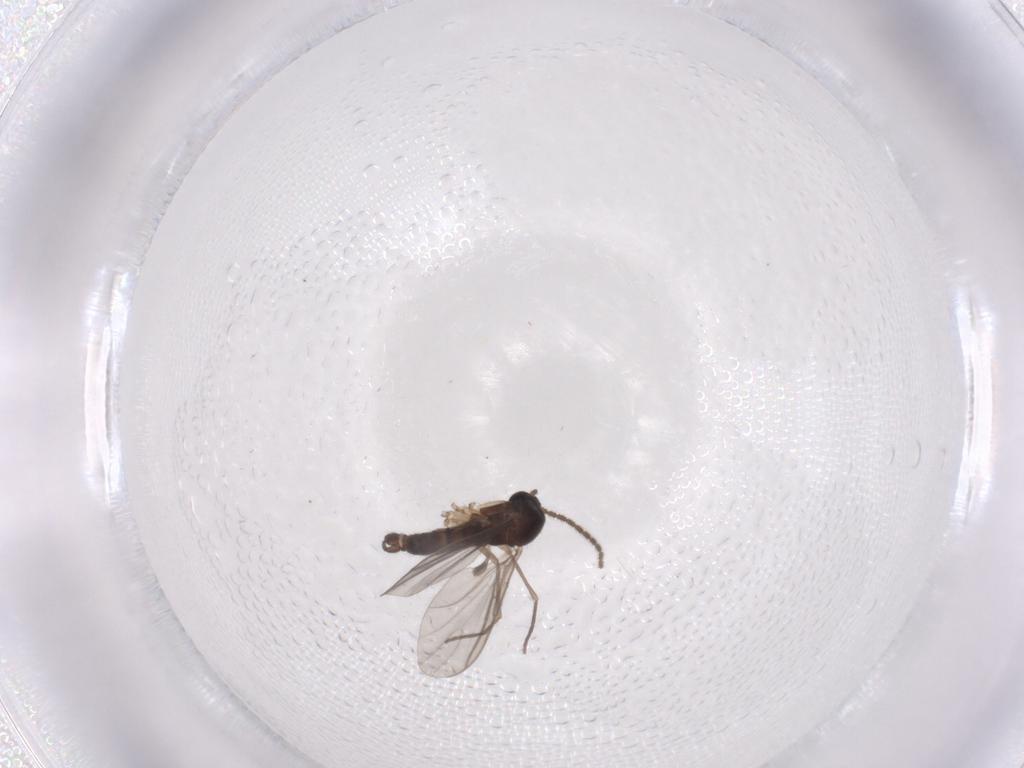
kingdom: Animalia
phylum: Arthropoda
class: Insecta
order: Diptera
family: Sciaridae
